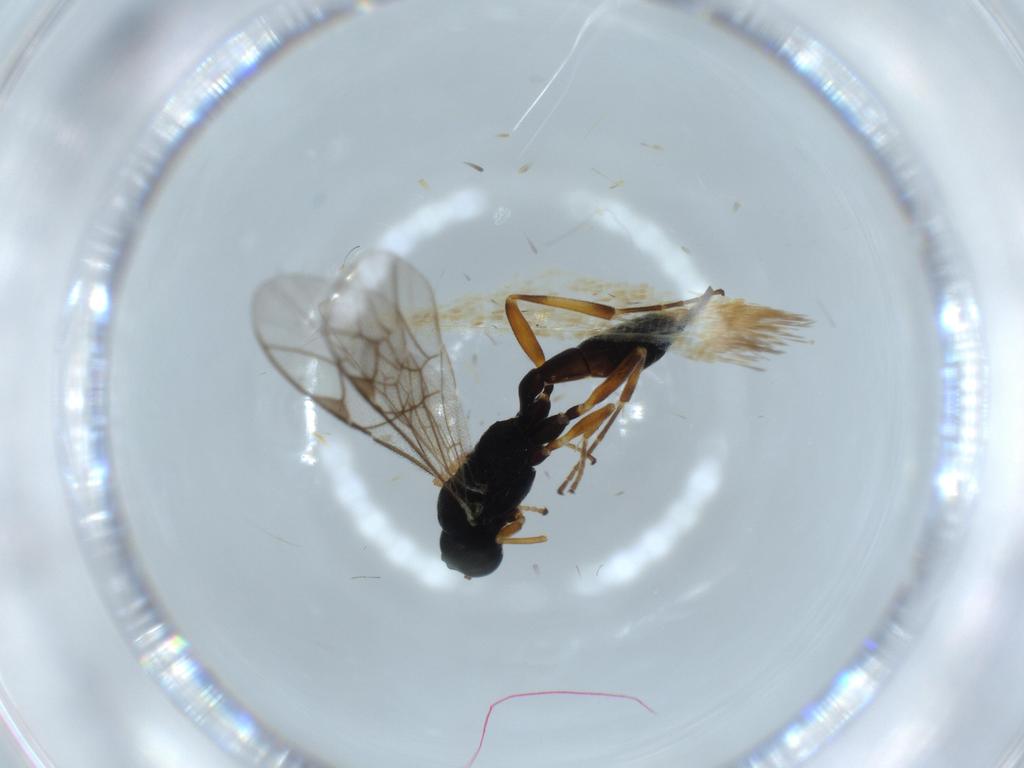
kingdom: Animalia
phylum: Arthropoda
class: Insecta
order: Hymenoptera
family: Ichneumonidae
